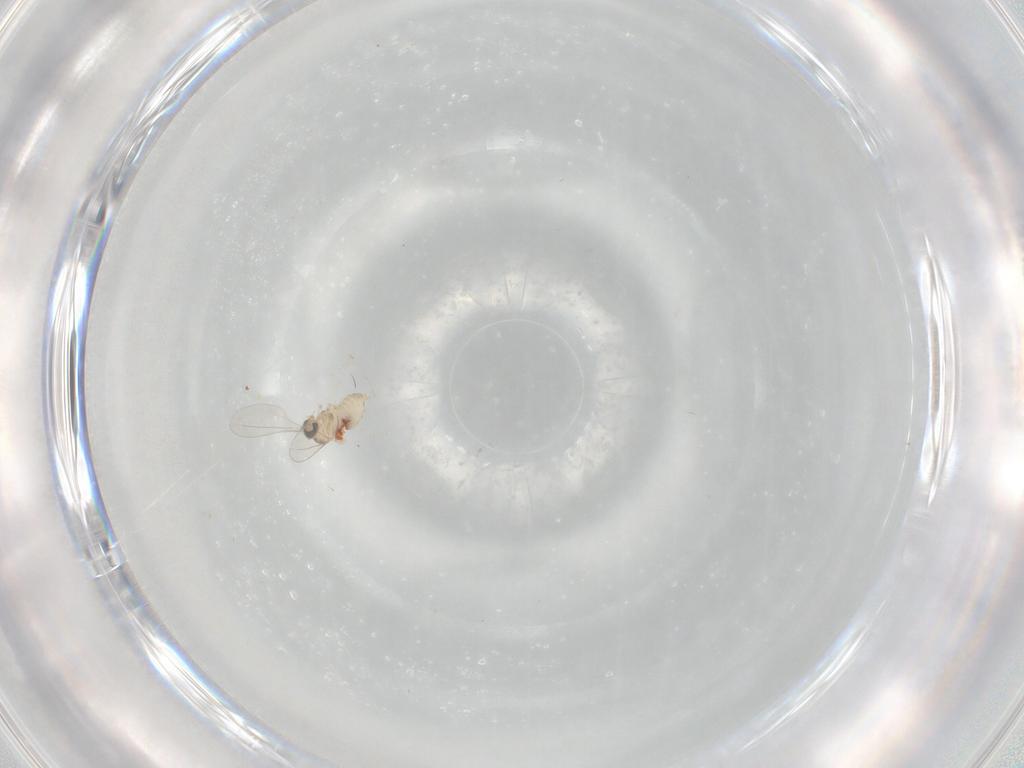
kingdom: Animalia
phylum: Arthropoda
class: Insecta
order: Diptera
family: Cecidomyiidae
